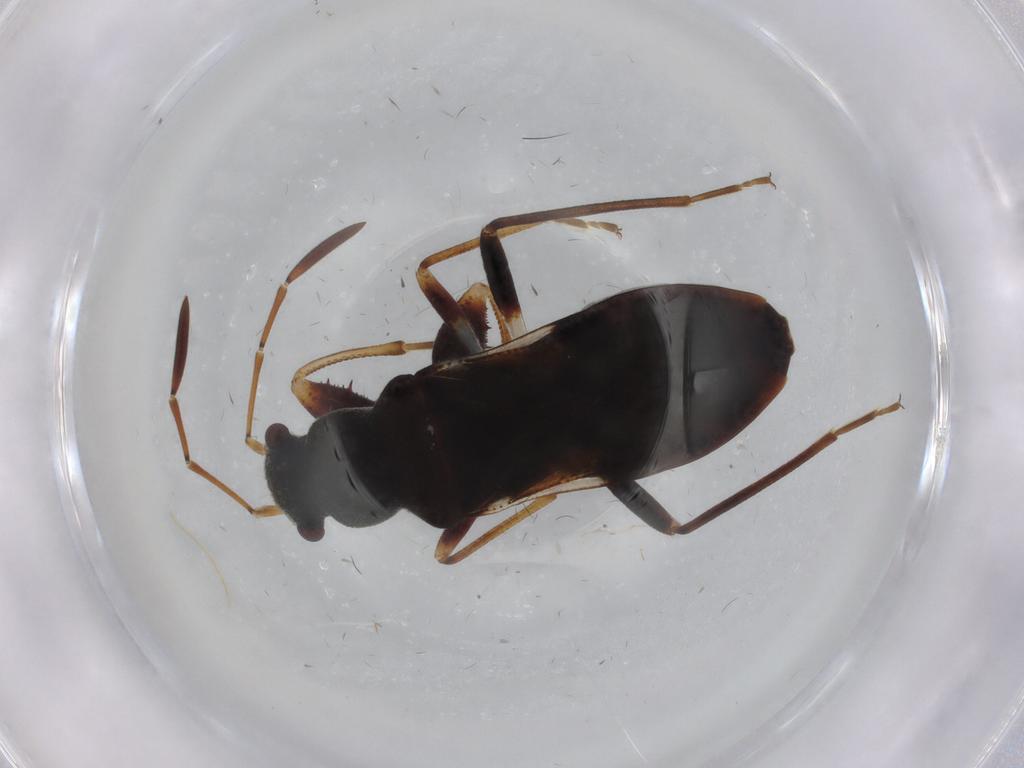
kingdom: Animalia
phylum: Arthropoda
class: Insecta
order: Hemiptera
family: Rhyparochromidae
